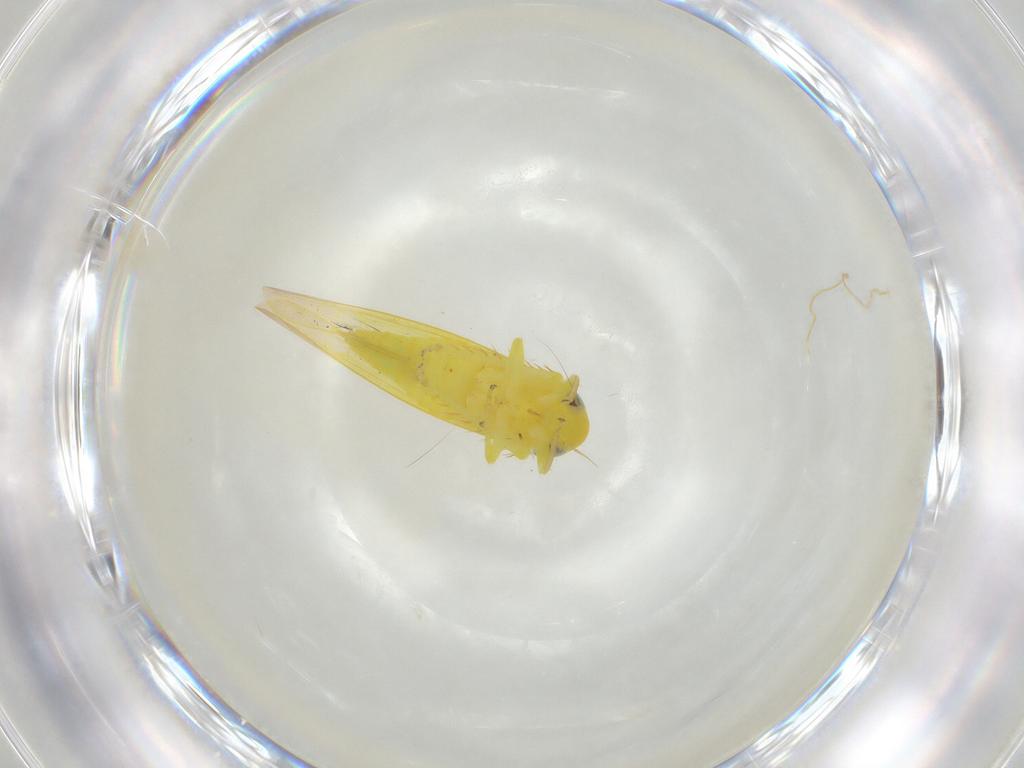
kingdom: Animalia
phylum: Arthropoda
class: Insecta
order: Hemiptera
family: Cicadellidae
